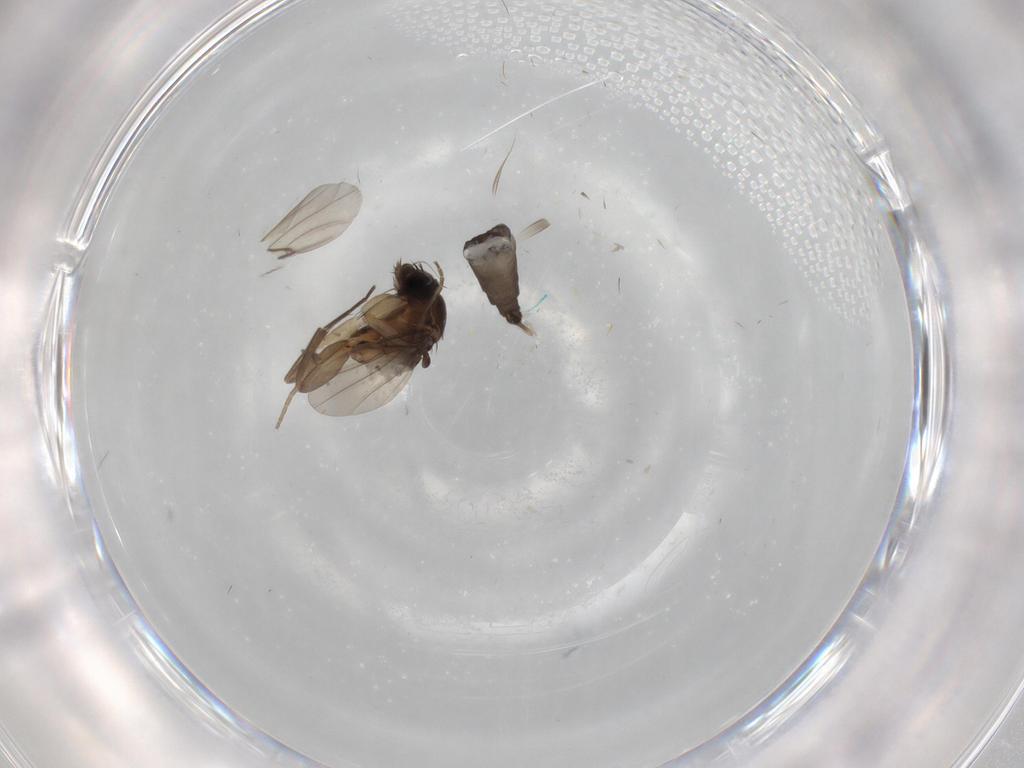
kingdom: Animalia
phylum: Arthropoda
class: Insecta
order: Diptera
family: Phoridae
